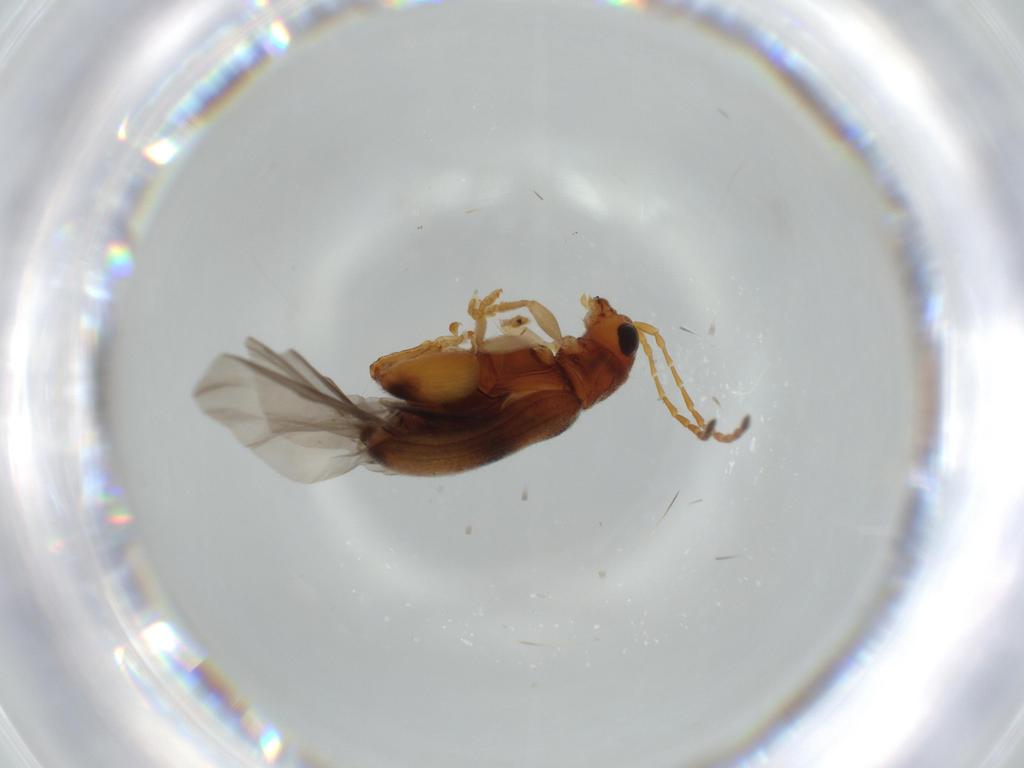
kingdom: Animalia
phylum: Arthropoda
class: Insecta
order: Coleoptera
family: Chrysomelidae
